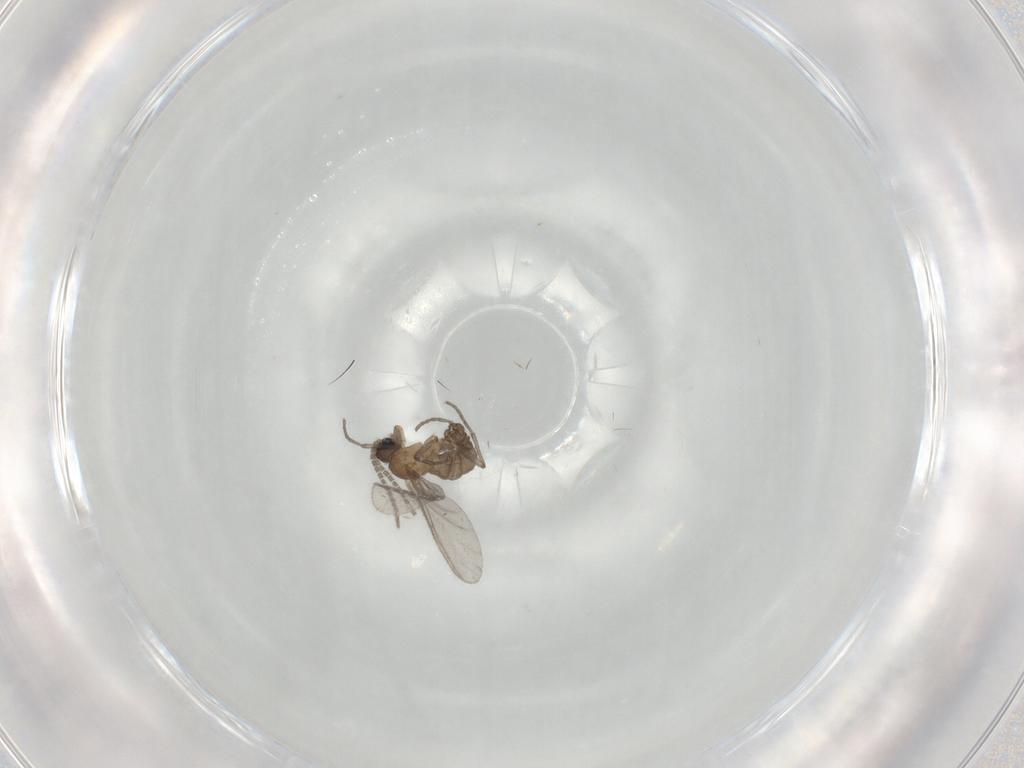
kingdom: Animalia
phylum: Arthropoda
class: Insecta
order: Diptera
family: Sciaridae
